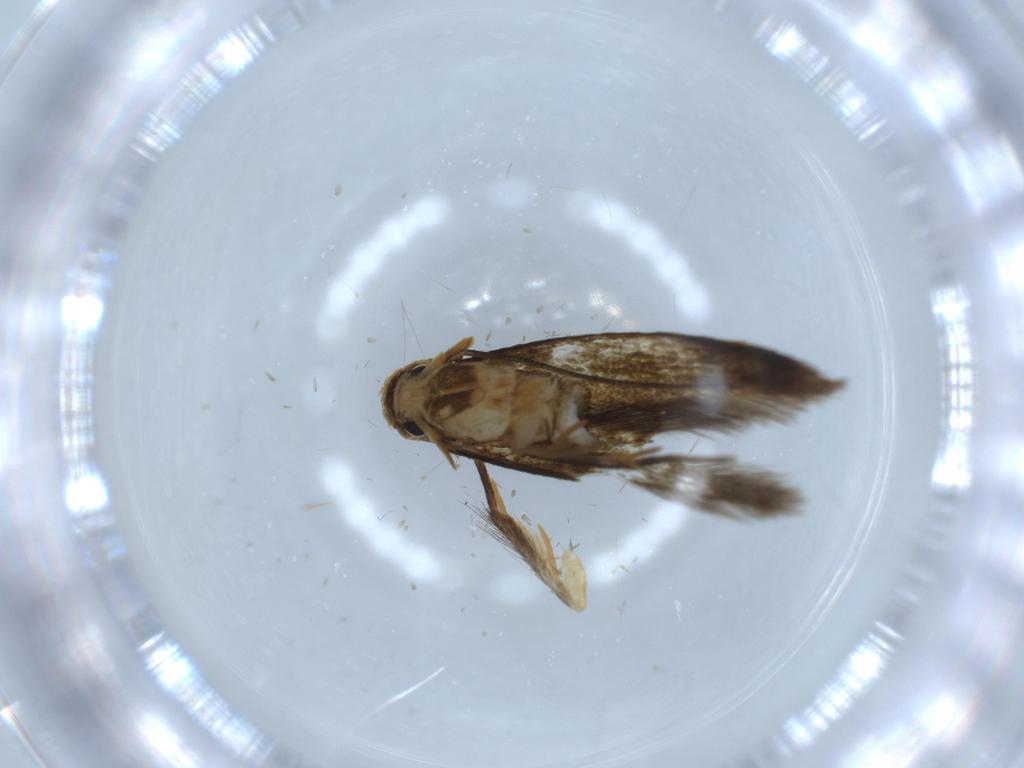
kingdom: Animalia
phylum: Arthropoda
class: Insecta
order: Lepidoptera
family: Tineidae
